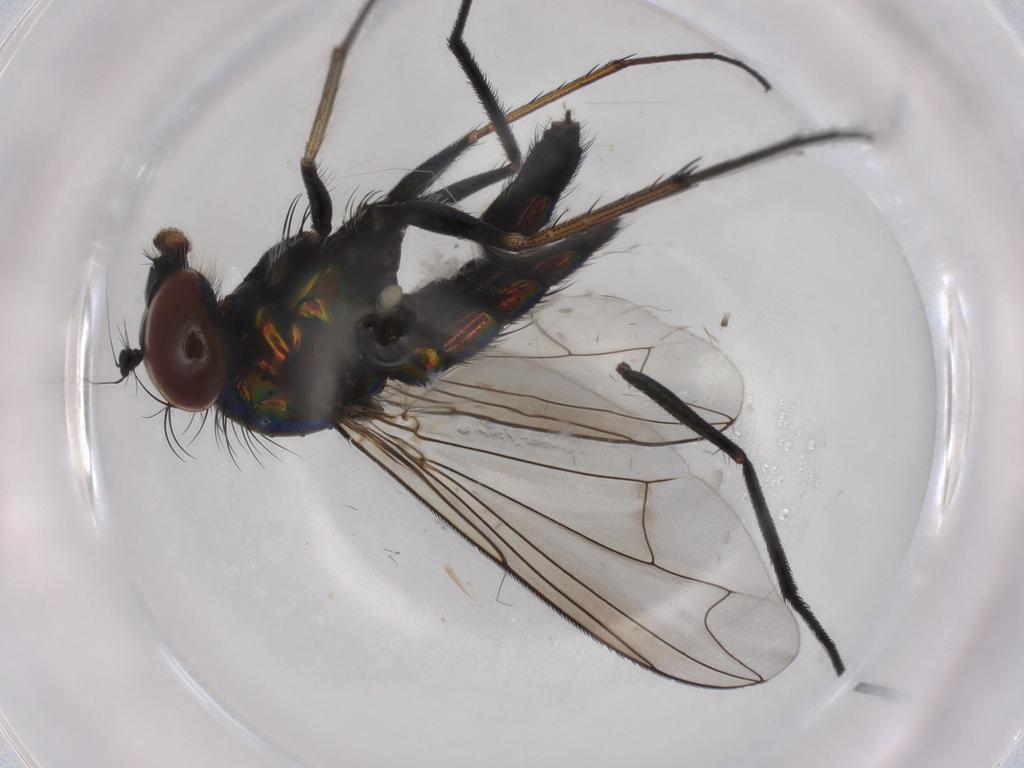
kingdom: Animalia
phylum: Arthropoda
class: Insecta
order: Diptera
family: Dolichopodidae
